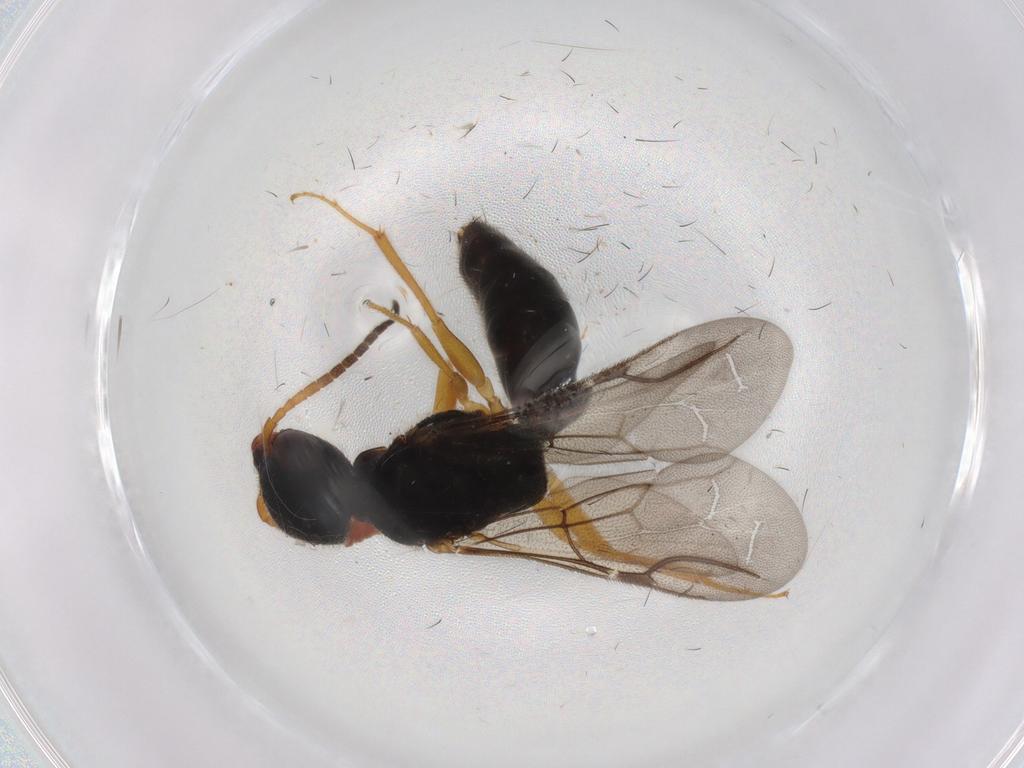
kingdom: Animalia
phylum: Arthropoda
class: Insecta
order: Hymenoptera
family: Bethylidae
